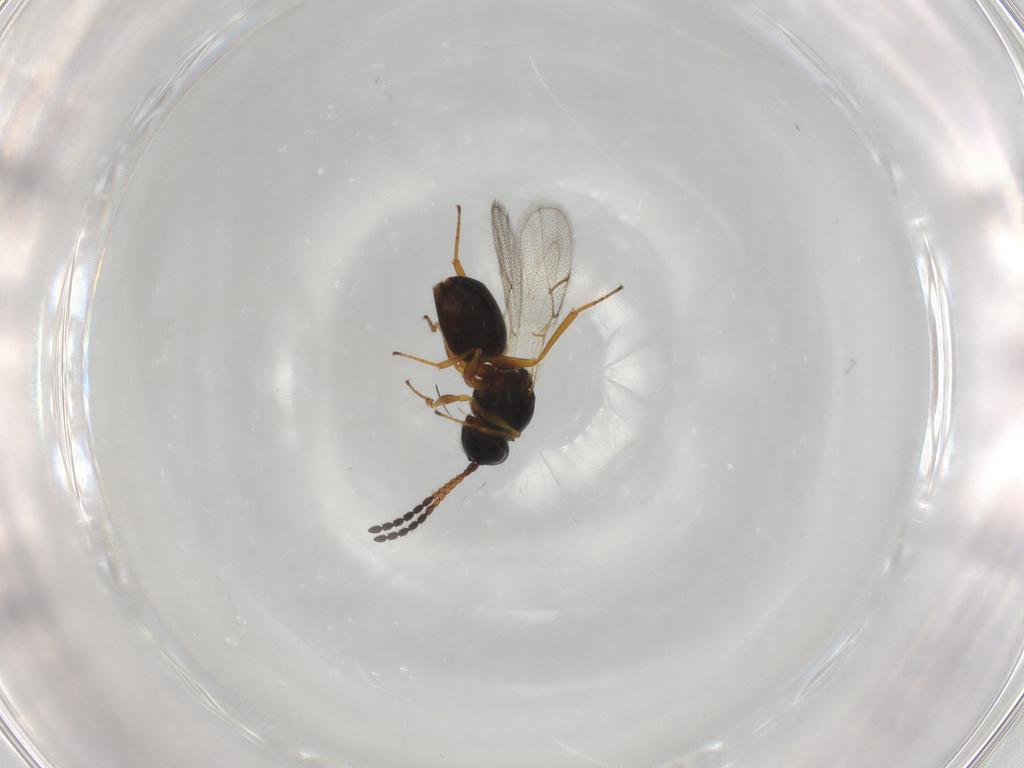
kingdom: Animalia
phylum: Arthropoda
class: Insecta
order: Hymenoptera
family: Figitidae
